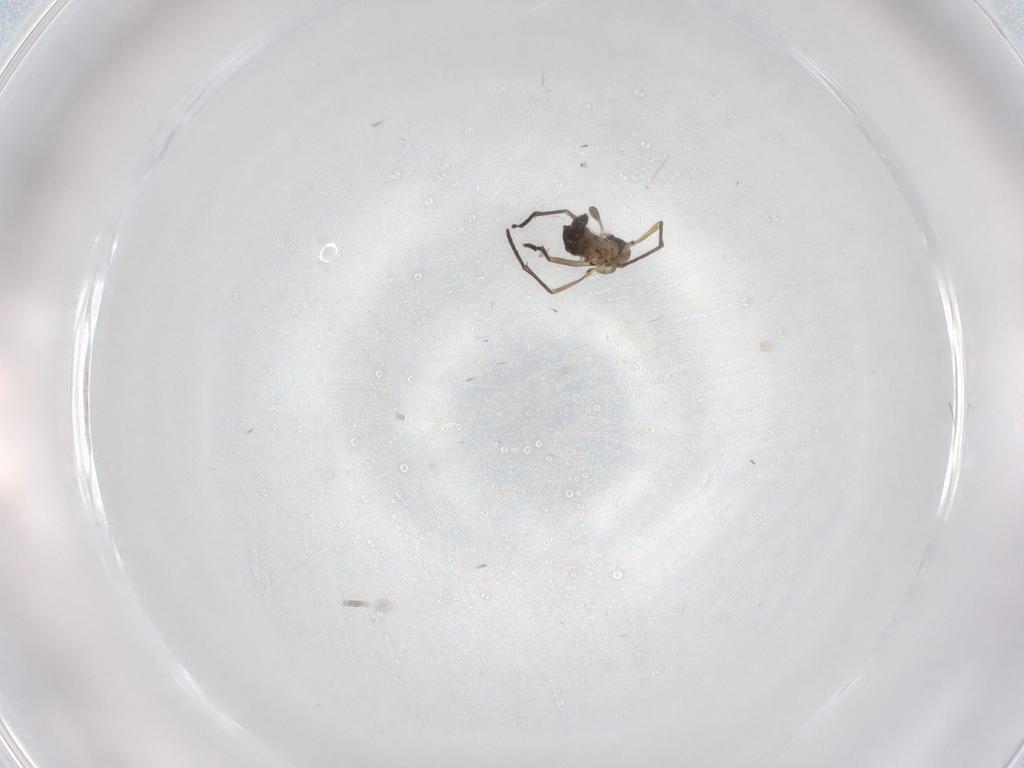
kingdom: Animalia
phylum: Arthropoda
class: Insecta
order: Diptera
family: Sciaridae
